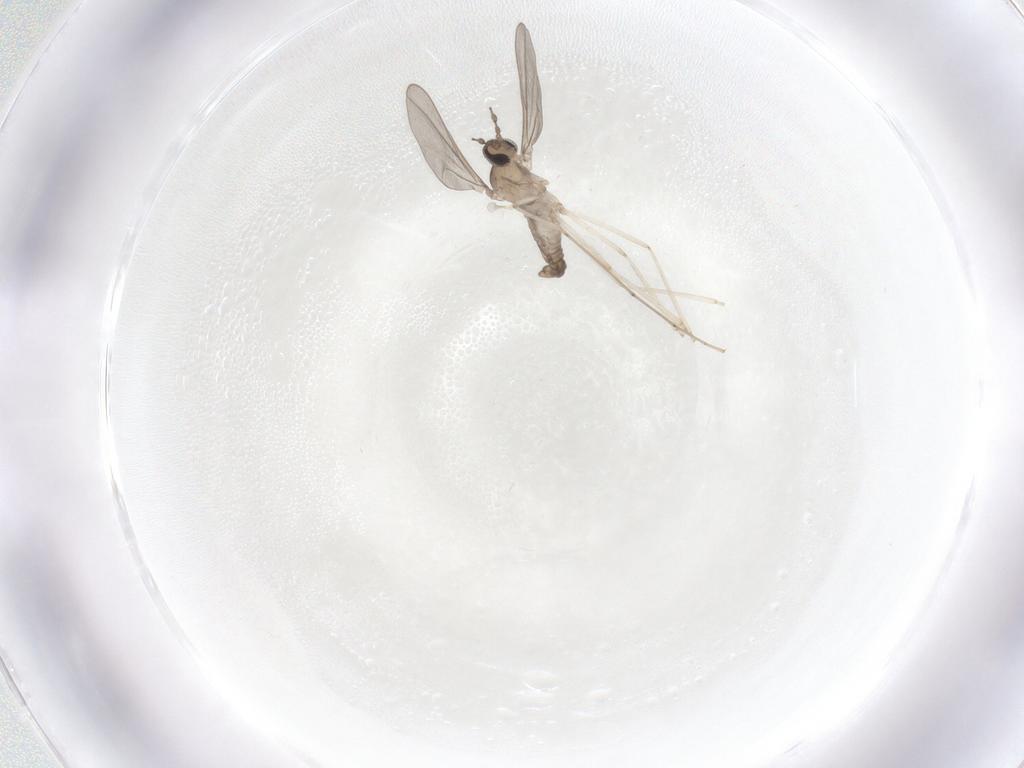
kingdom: Animalia
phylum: Arthropoda
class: Insecta
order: Diptera
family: Cecidomyiidae
